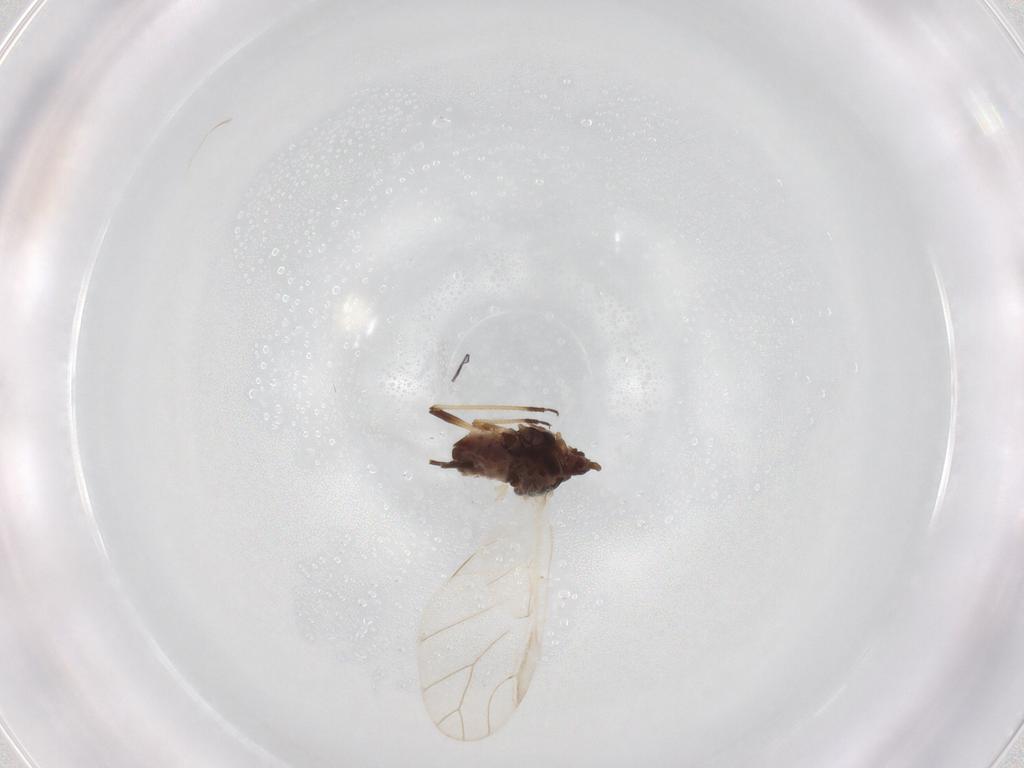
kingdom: Animalia
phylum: Arthropoda
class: Insecta
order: Hemiptera
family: Aphididae
